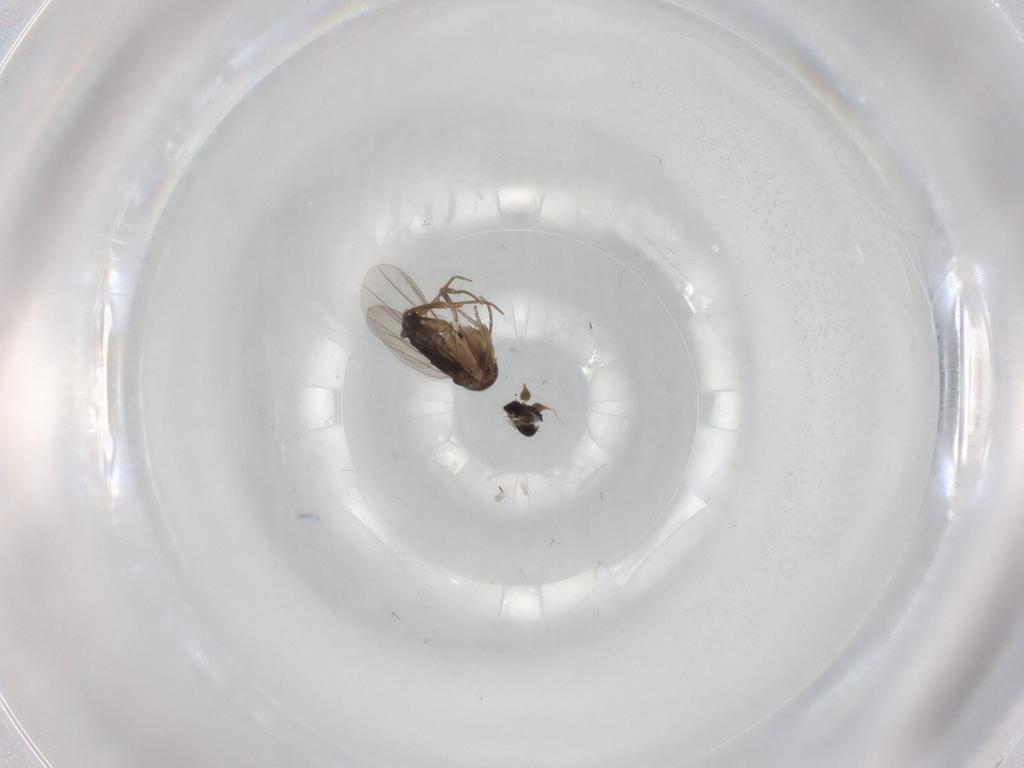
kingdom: Animalia
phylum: Arthropoda
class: Insecta
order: Diptera
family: Phoridae
